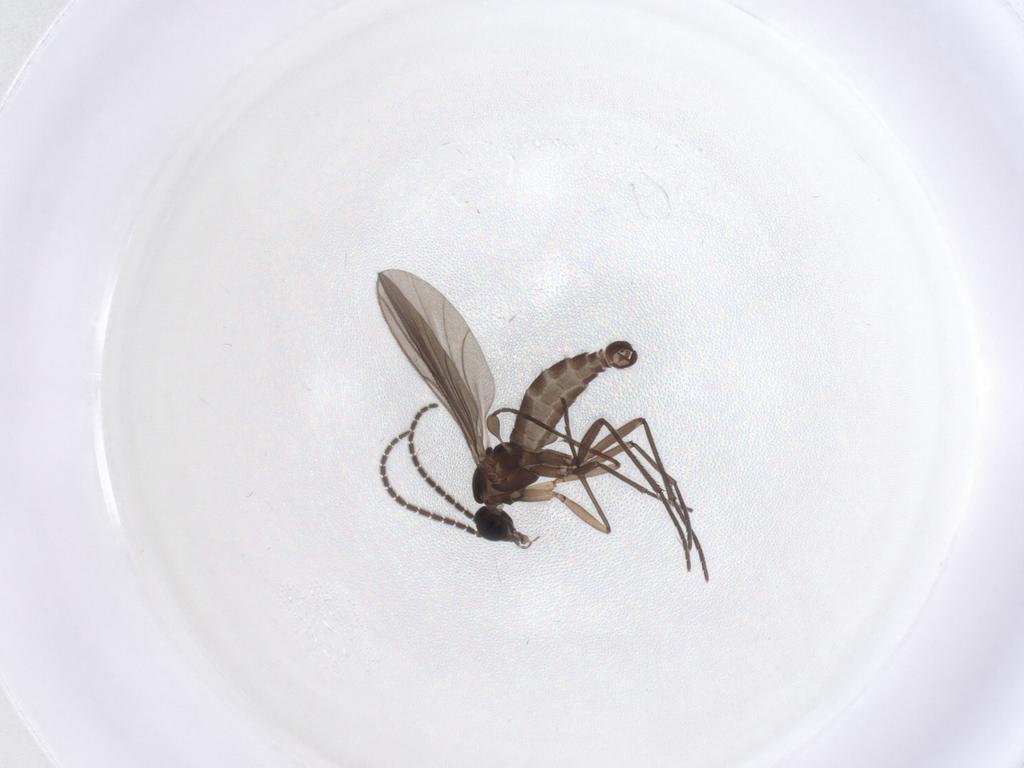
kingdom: Animalia
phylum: Arthropoda
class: Insecta
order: Diptera
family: Sciaridae
